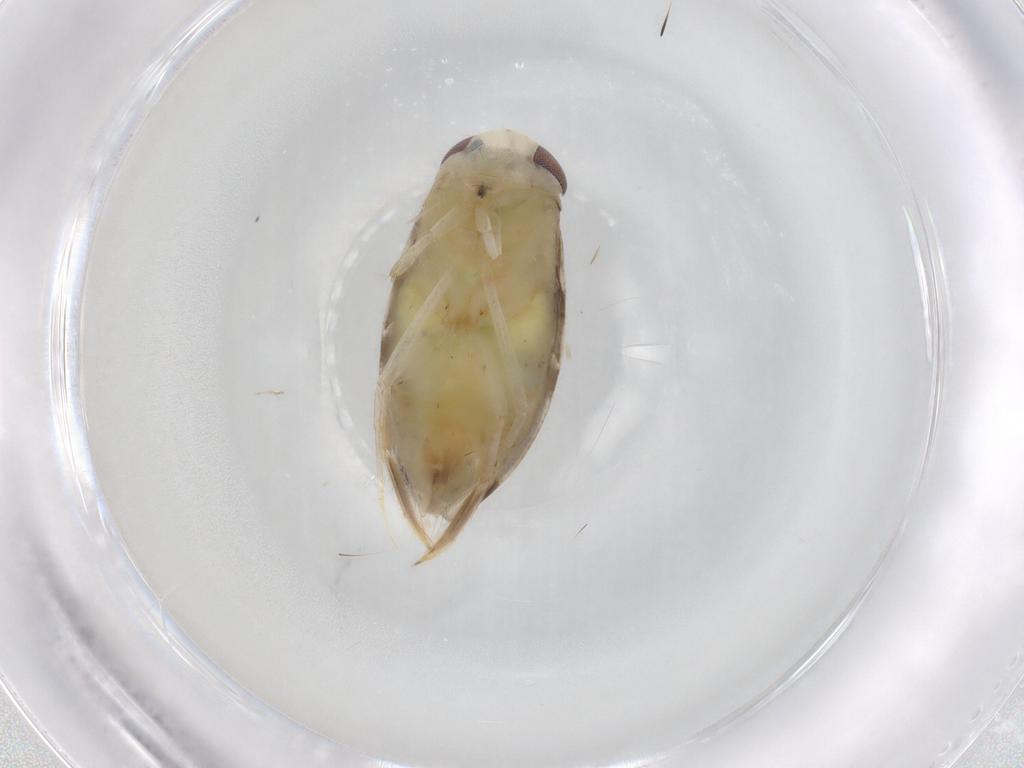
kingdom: Animalia
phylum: Arthropoda
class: Insecta
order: Hemiptera
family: Corixidae
